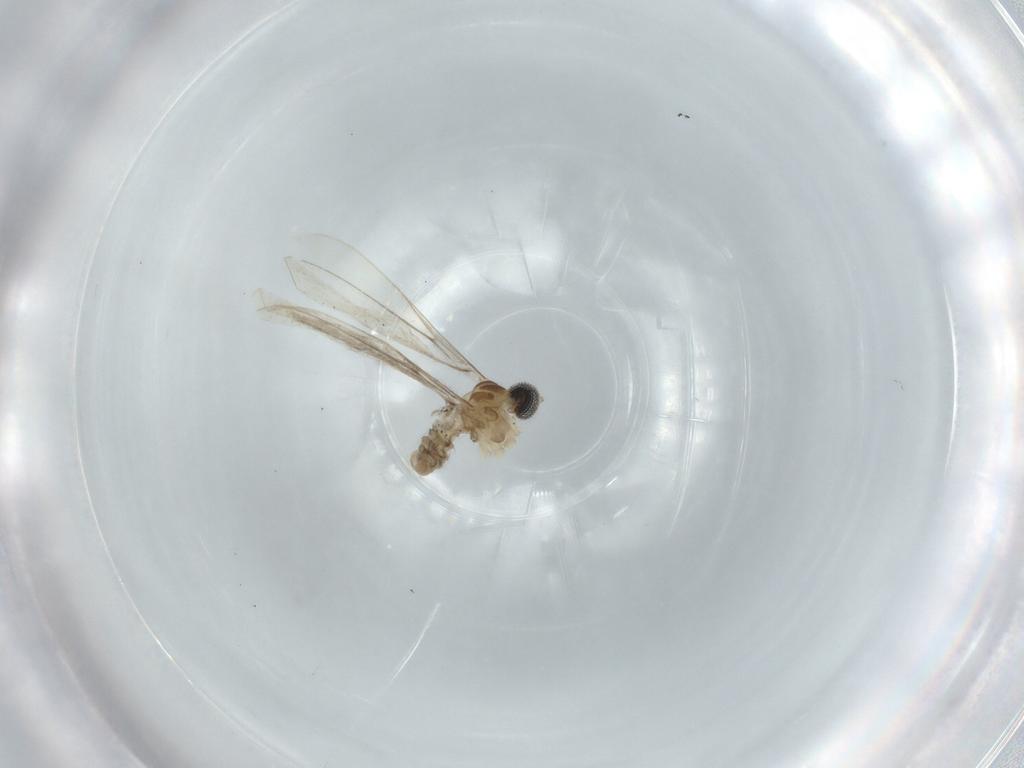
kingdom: Animalia
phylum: Arthropoda
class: Insecta
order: Diptera
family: Cecidomyiidae
